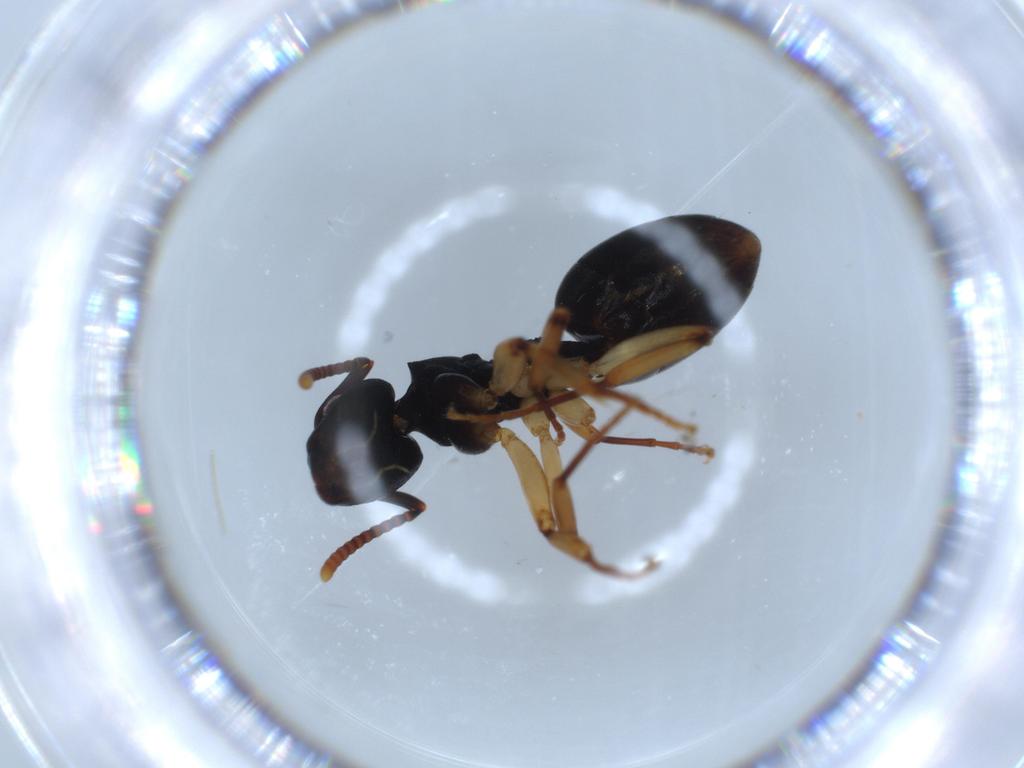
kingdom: Animalia
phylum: Arthropoda
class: Insecta
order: Hymenoptera
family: Formicidae
